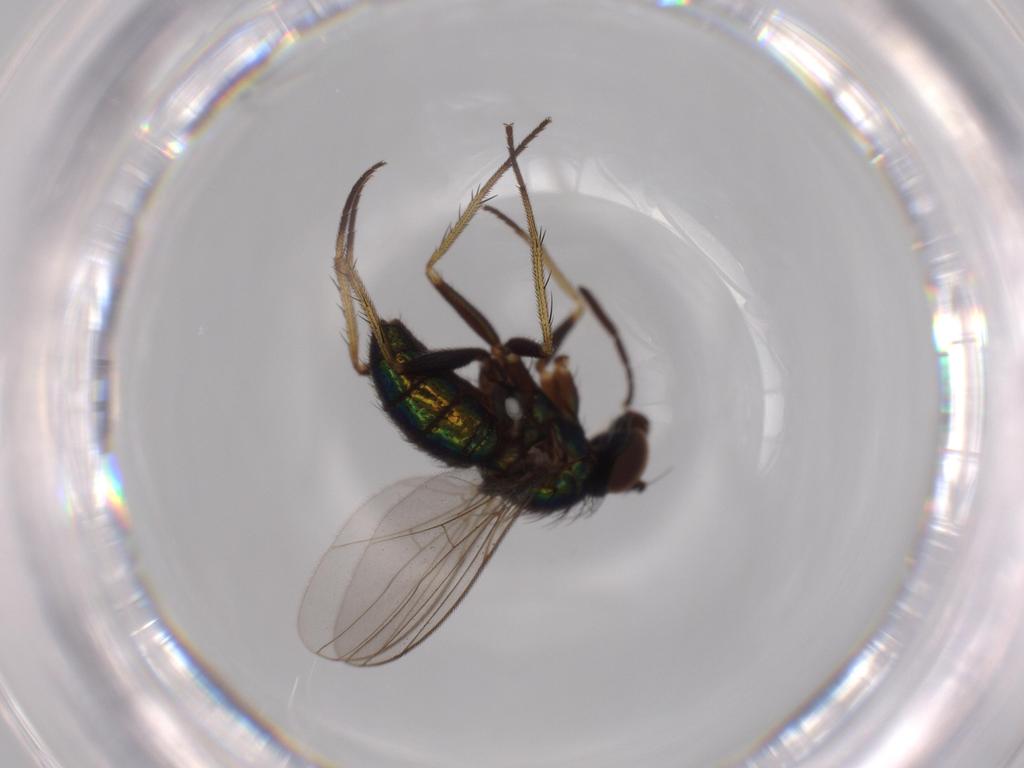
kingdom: Animalia
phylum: Arthropoda
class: Insecta
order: Diptera
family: Dolichopodidae
